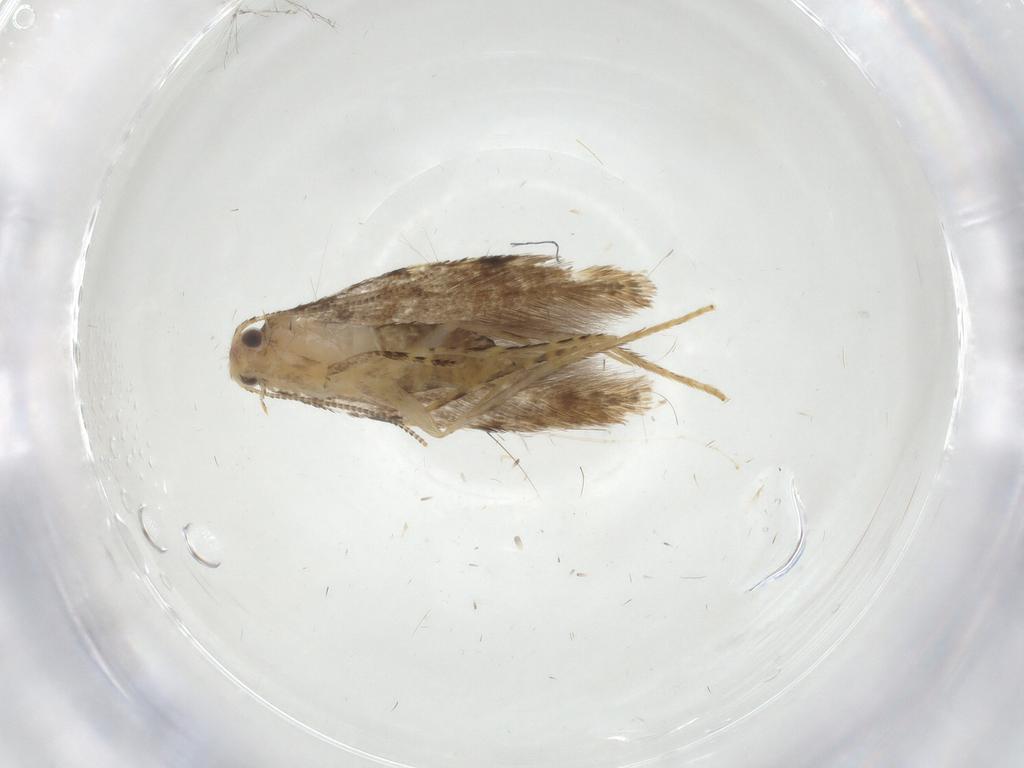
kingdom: Animalia
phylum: Arthropoda
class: Insecta
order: Lepidoptera
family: Tineidae
